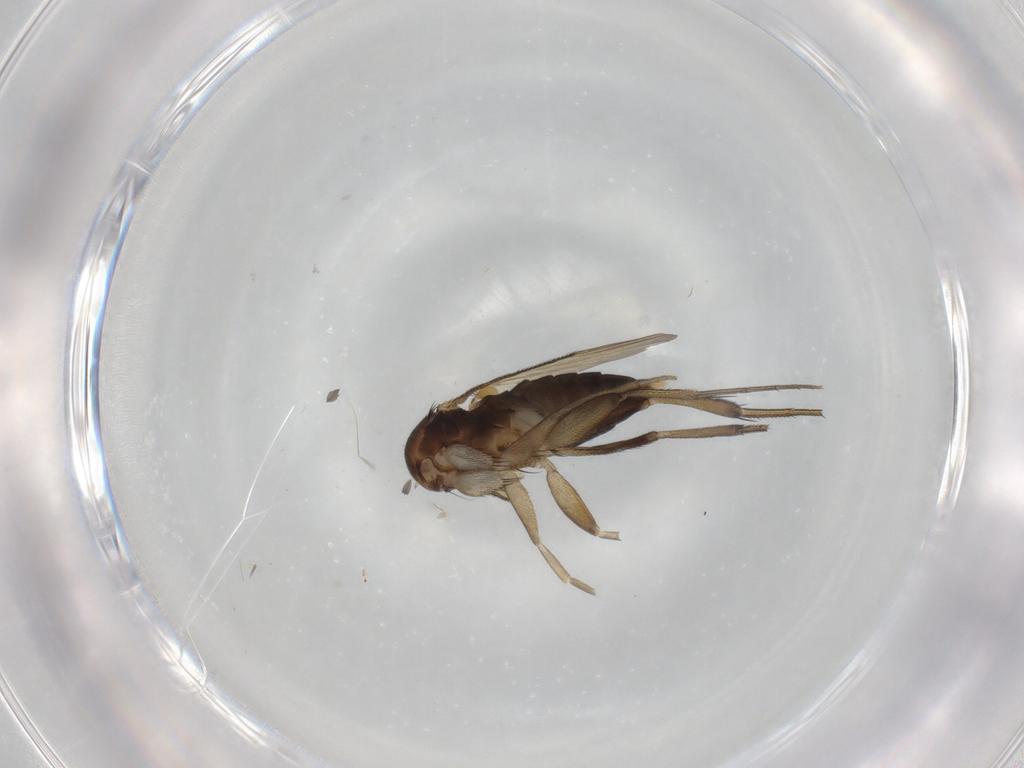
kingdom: Animalia
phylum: Arthropoda
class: Insecta
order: Diptera
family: Phoridae
